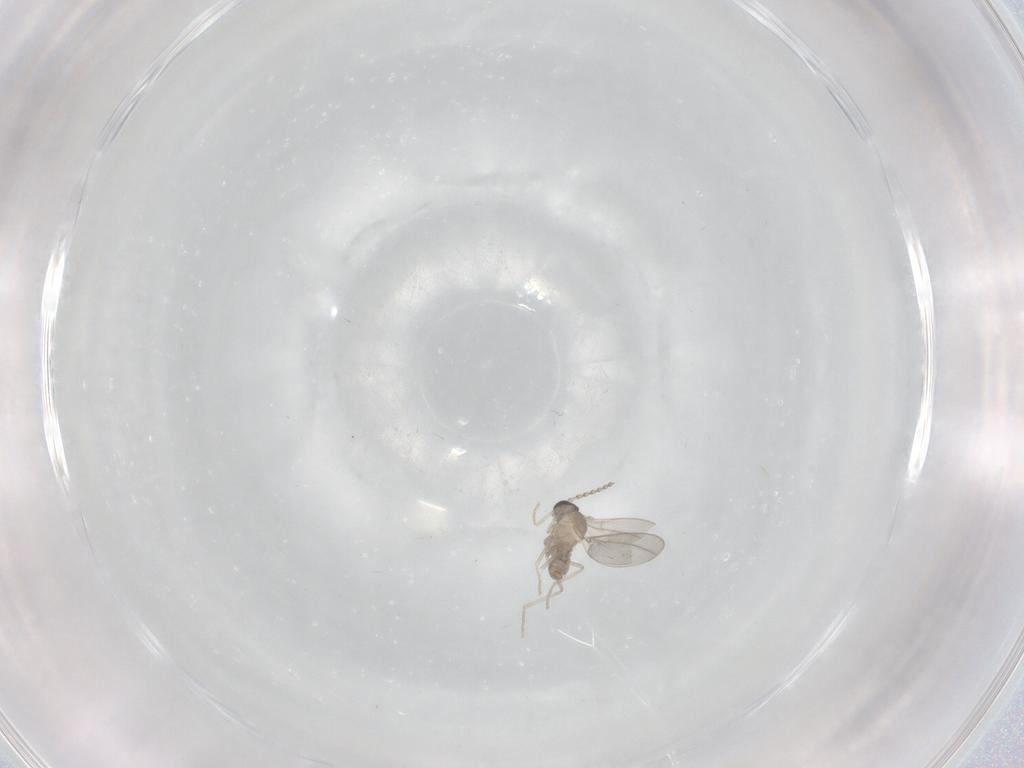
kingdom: Animalia
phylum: Arthropoda
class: Insecta
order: Diptera
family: Cecidomyiidae
